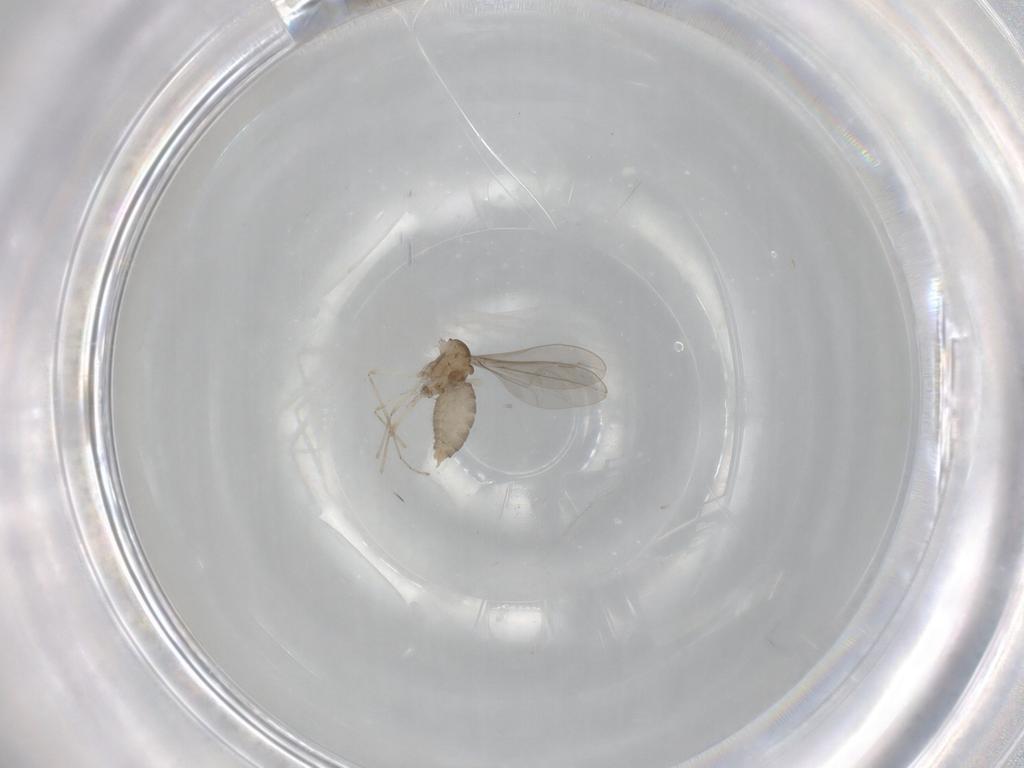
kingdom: Animalia
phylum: Arthropoda
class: Insecta
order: Diptera
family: Cecidomyiidae
